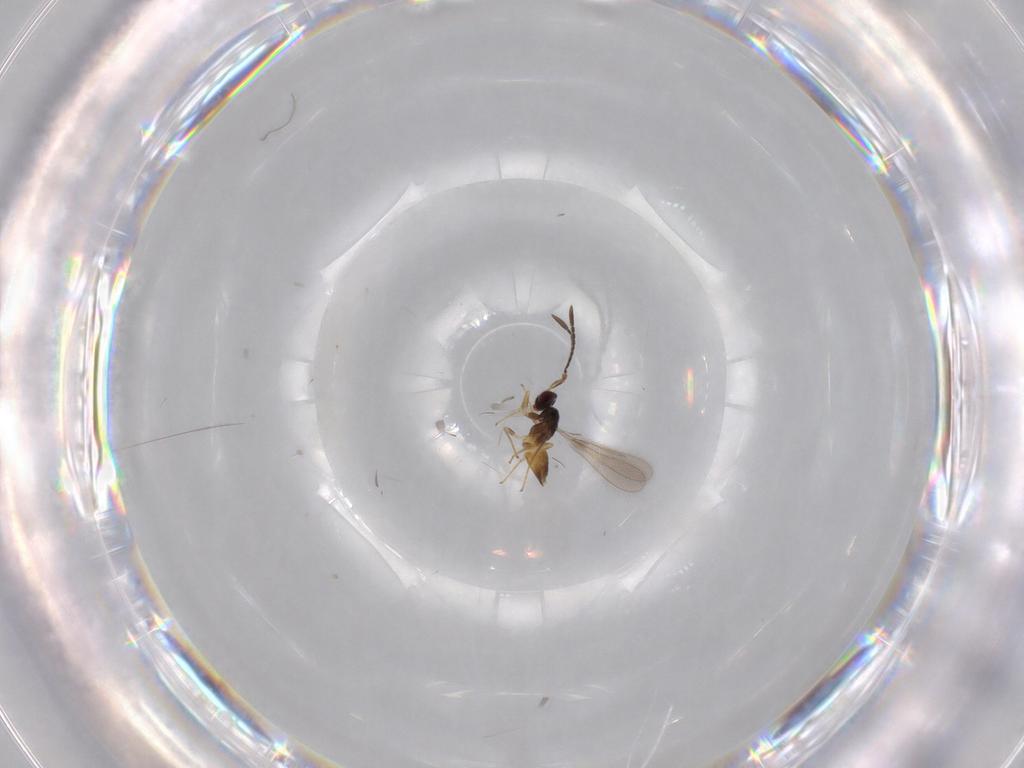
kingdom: Animalia
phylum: Arthropoda
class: Insecta
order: Hymenoptera
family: Mymaridae
